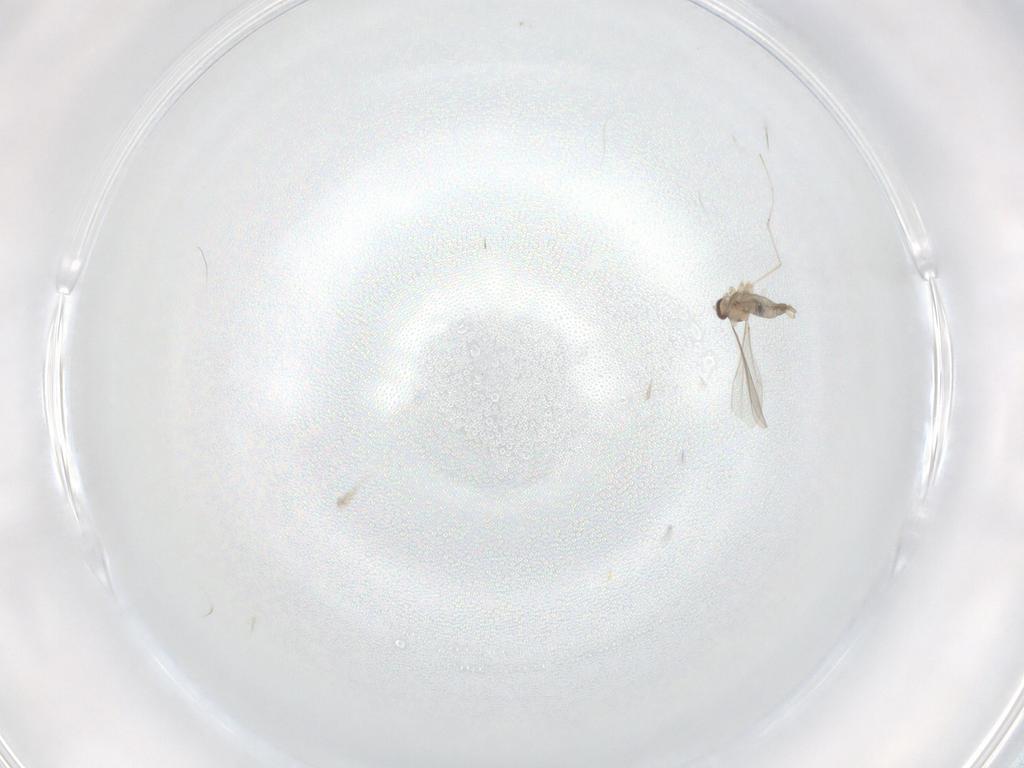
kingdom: Animalia
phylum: Arthropoda
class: Insecta
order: Diptera
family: Cecidomyiidae
